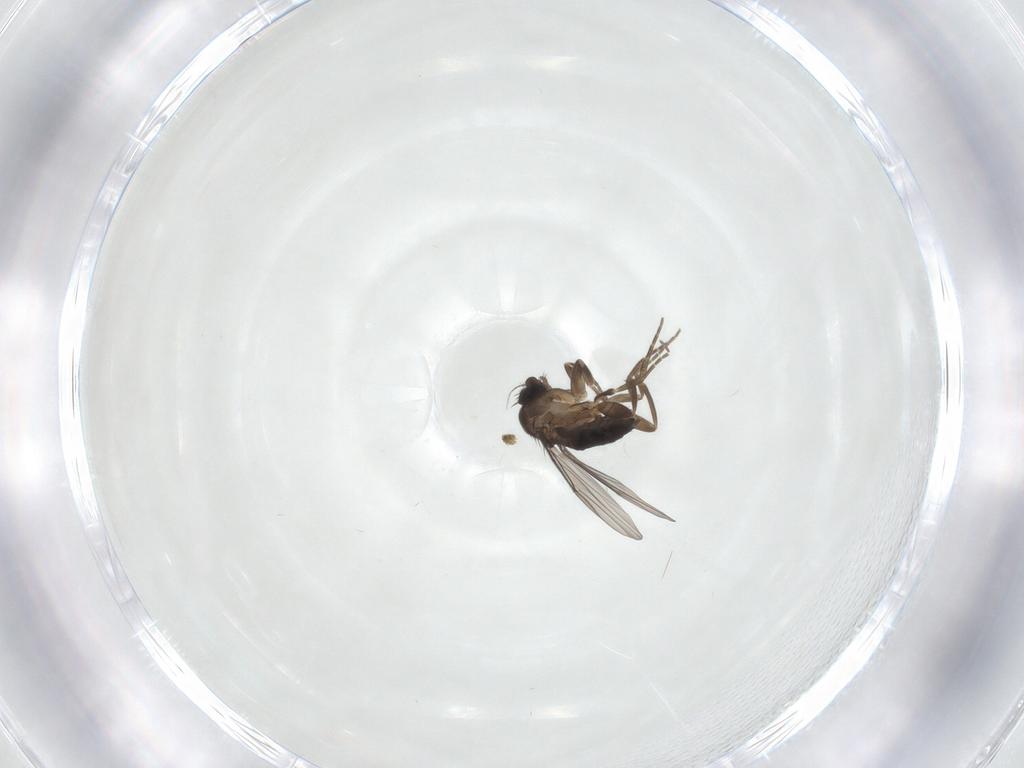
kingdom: Animalia
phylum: Arthropoda
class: Insecta
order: Diptera
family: Phoridae
